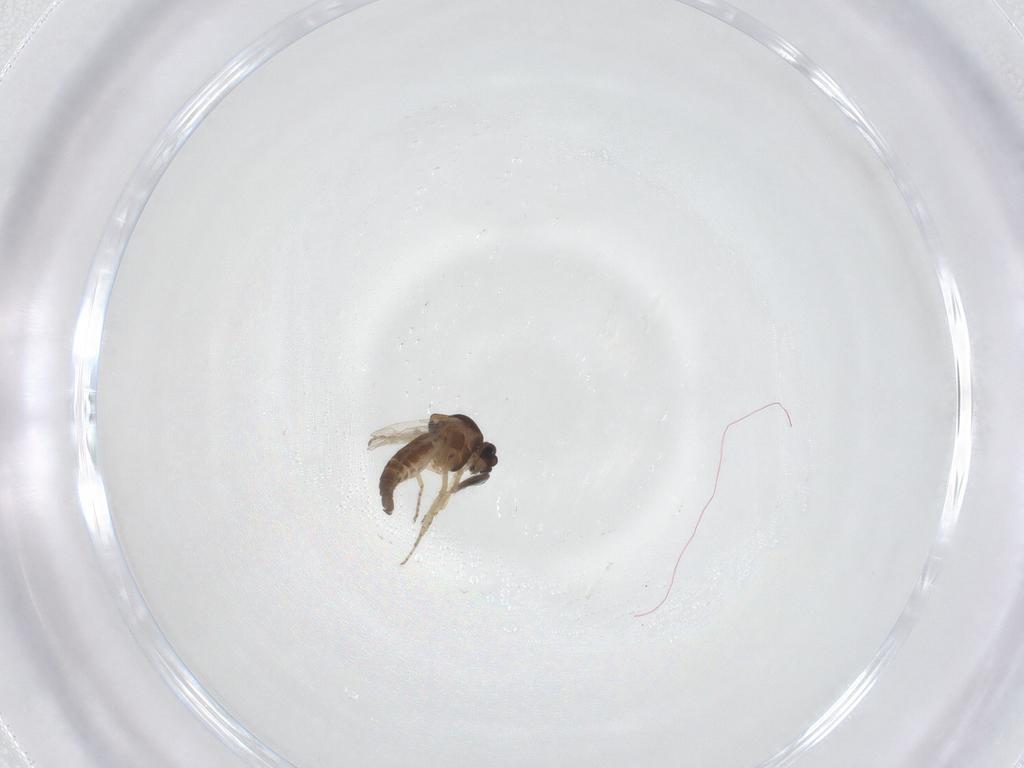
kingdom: Animalia
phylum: Arthropoda
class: Insecta
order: Diptera
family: Ceratopogonidae
